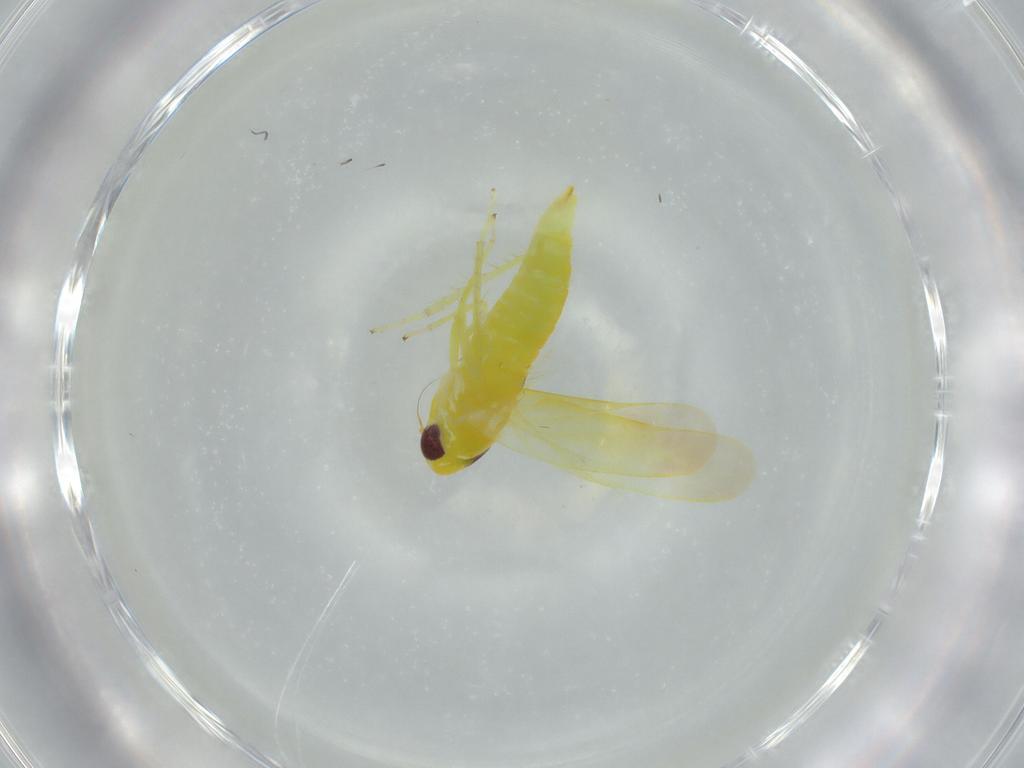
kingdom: Animalia
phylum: Arthropoda
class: Insecta
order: Hemiptera
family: Cicadellidae
